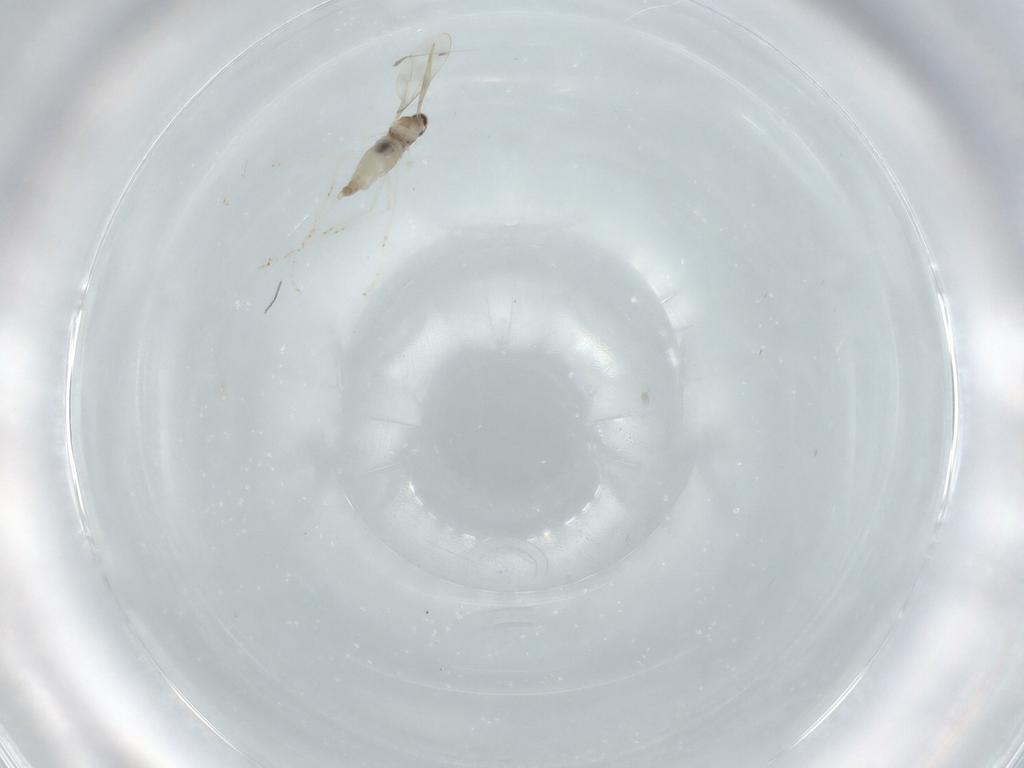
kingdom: Animalia
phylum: Arthropoda
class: Insecta
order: Diptera
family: Cecidomyiidae
